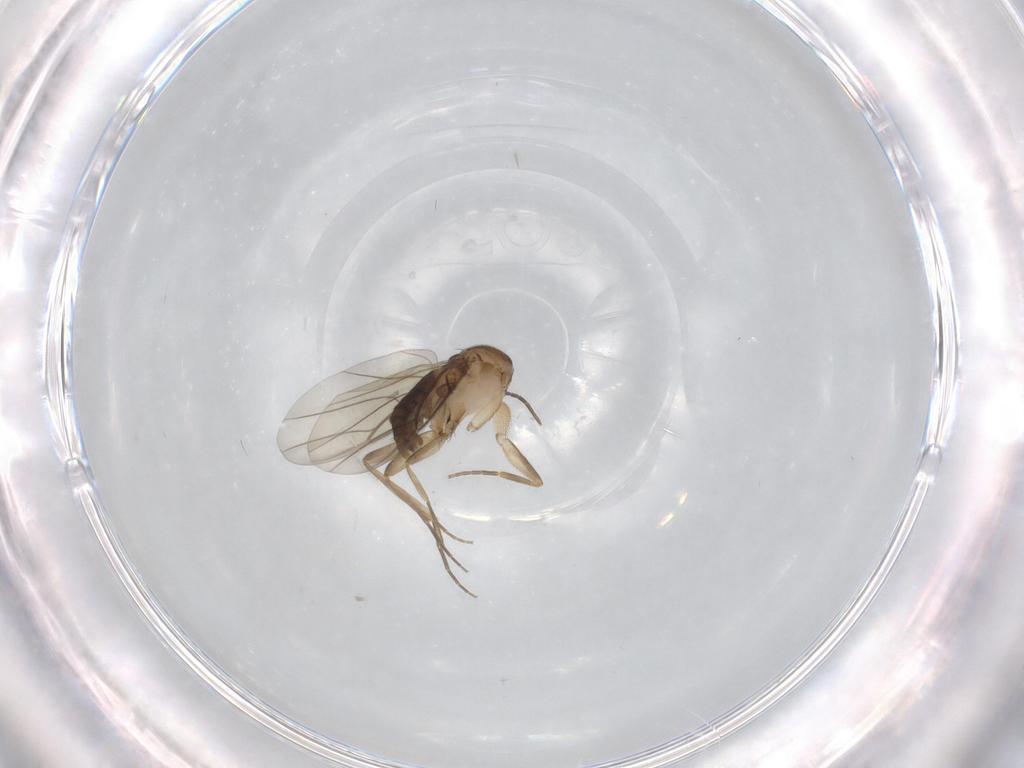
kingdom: Animalia
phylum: Arthropoda
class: Insecta
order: Diptera
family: Phoridae
